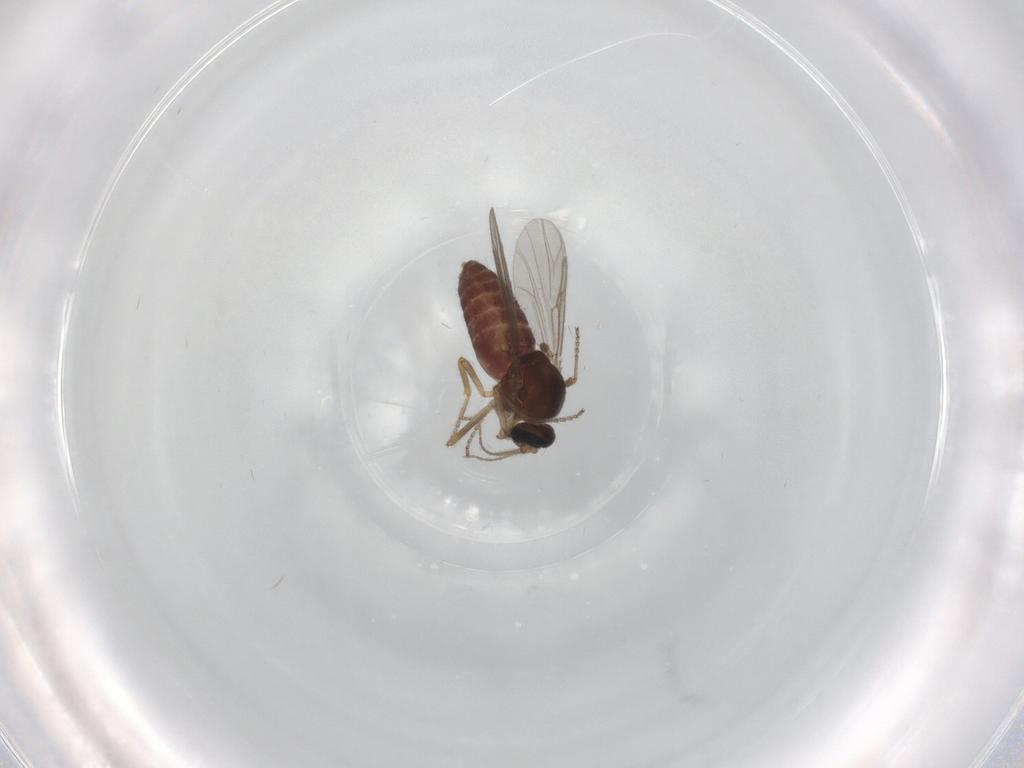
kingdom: Animalia
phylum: Arthropoda
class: Insecta
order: Diptera
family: Ceratopogonidae
